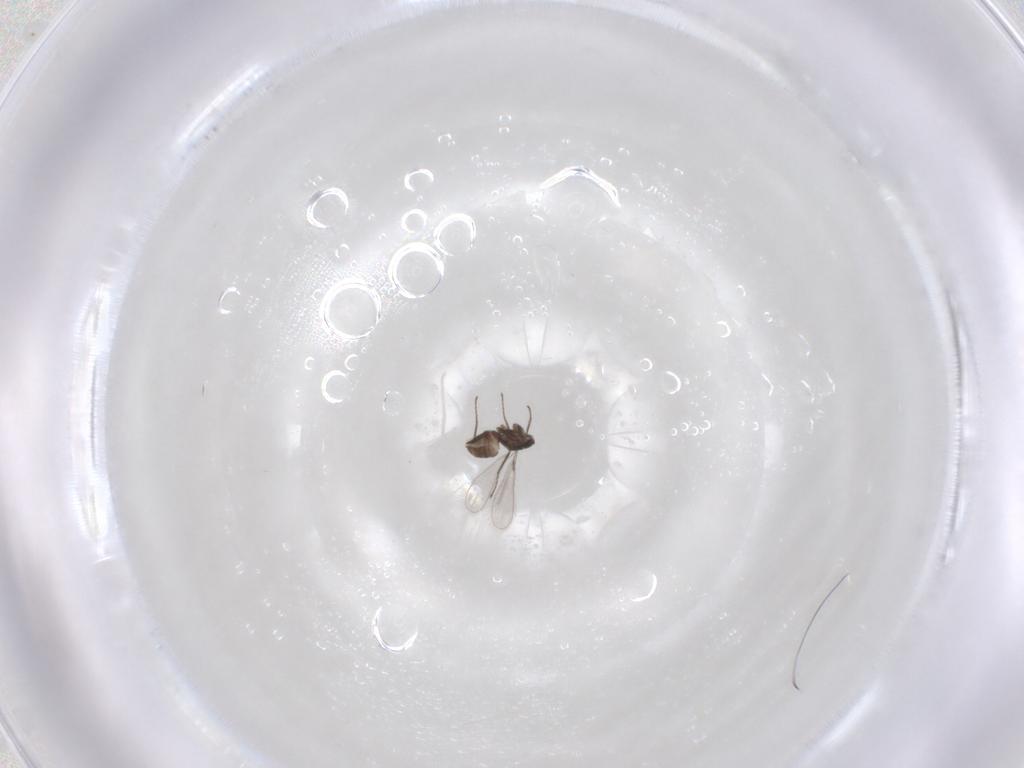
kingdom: Animalia
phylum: Arthropoda
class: Insecta
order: Hymenoptera
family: Mymaridae
